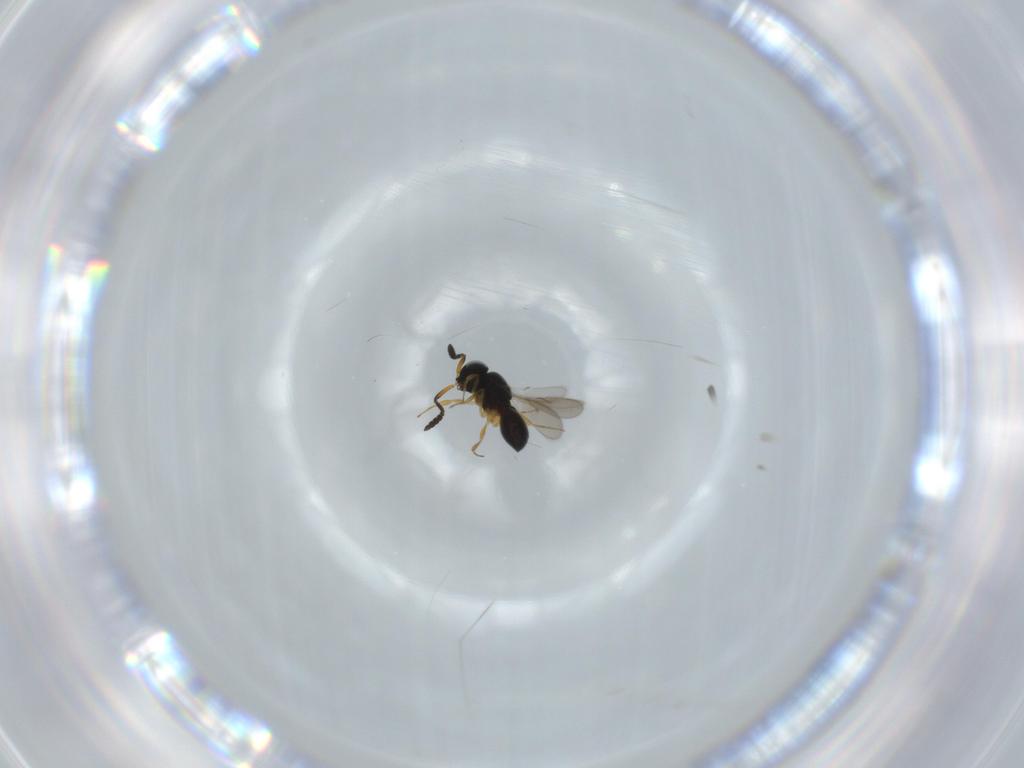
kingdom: Animalia
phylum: Arthropoda
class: Insecta
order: Hymenoptera
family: Scelionidae
